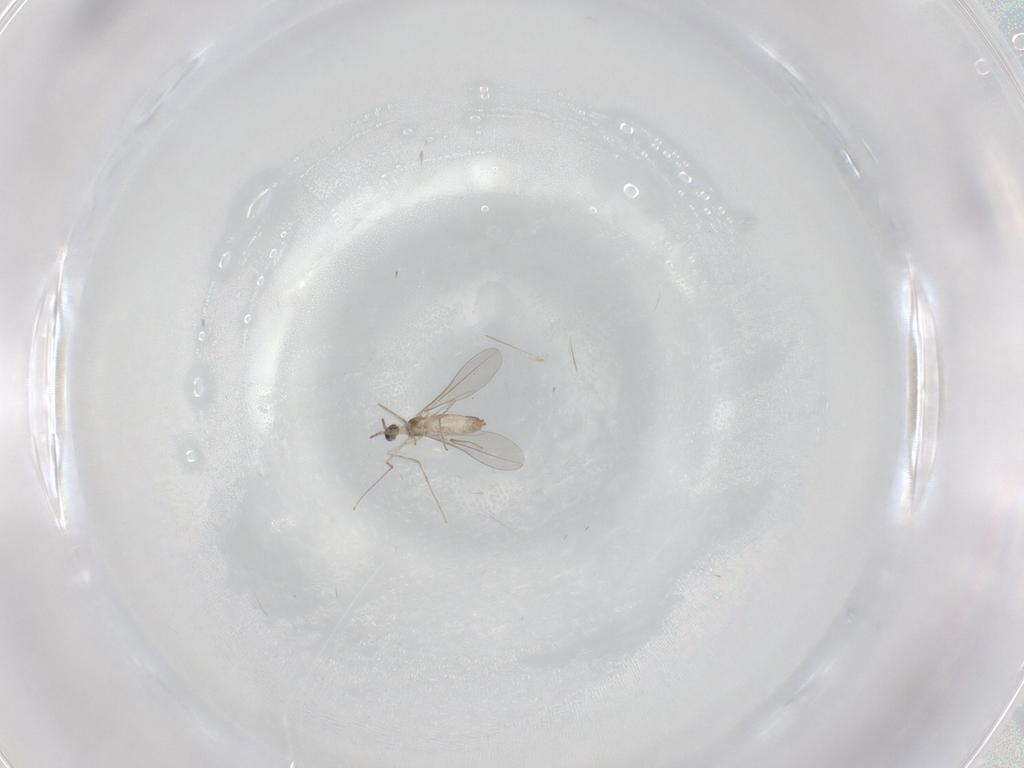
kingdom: Animalia
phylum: Arthropoda
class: Insecta
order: Diptera
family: Cecidomyiidae
